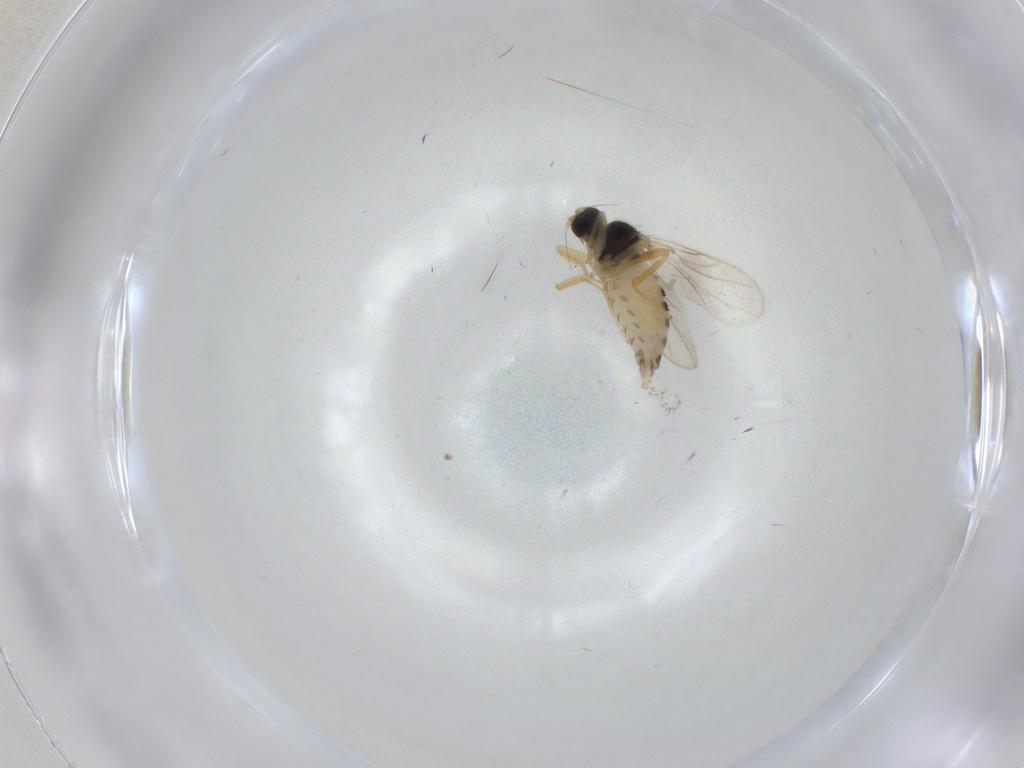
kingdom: Animalia
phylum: Arthropoda
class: Insecta
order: Diptera
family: Hybotidae
